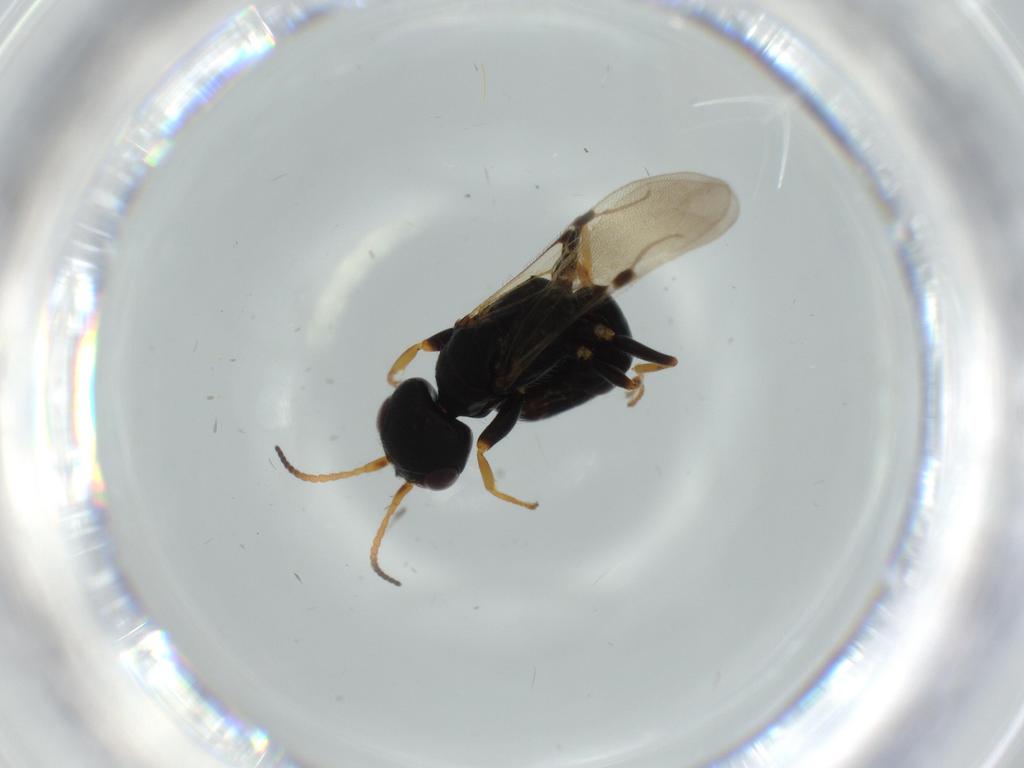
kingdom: Animalia
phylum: Arthropoda
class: Insecta
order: Hymenoptera
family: Bethylidae
